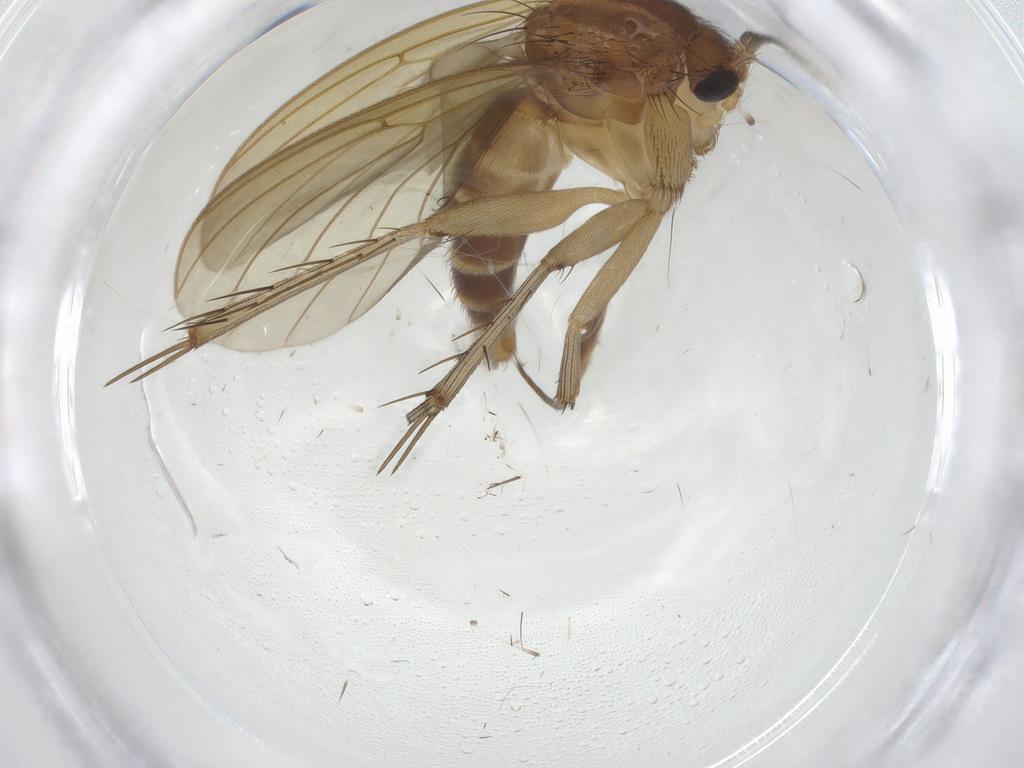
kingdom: Animalia
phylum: Arthropoda
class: Insecta
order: Diptera
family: Bombyliidae
